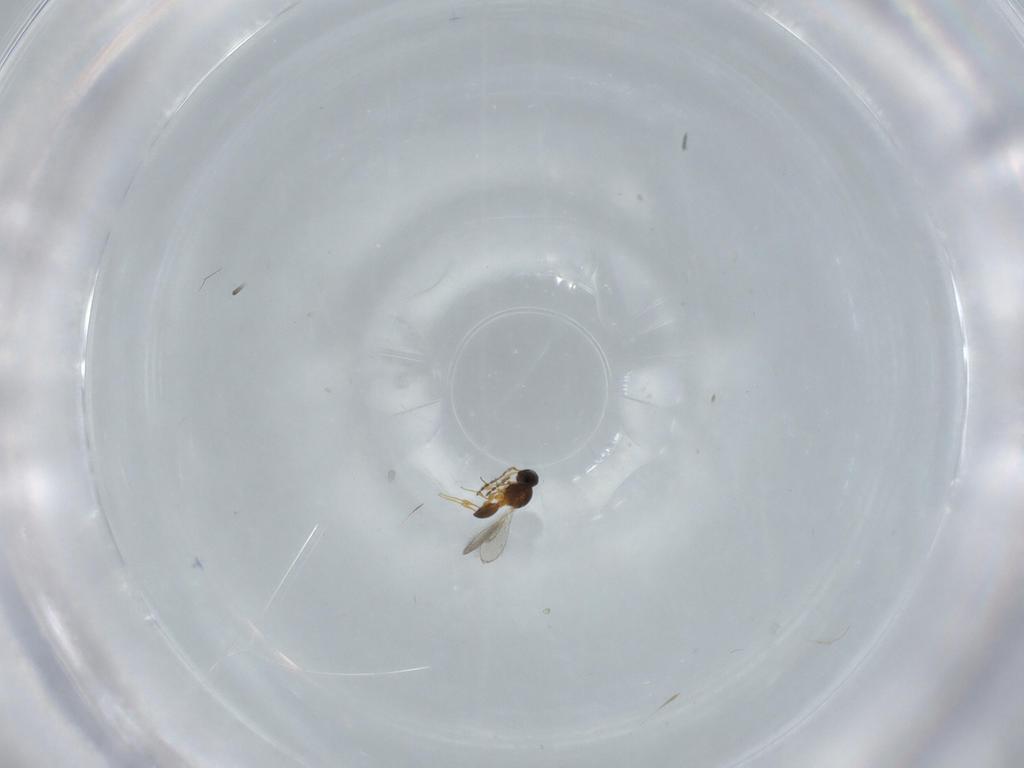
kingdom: Animalia
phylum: Arthropoda
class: Insecta
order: Hymenoptera
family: Platygastridae
